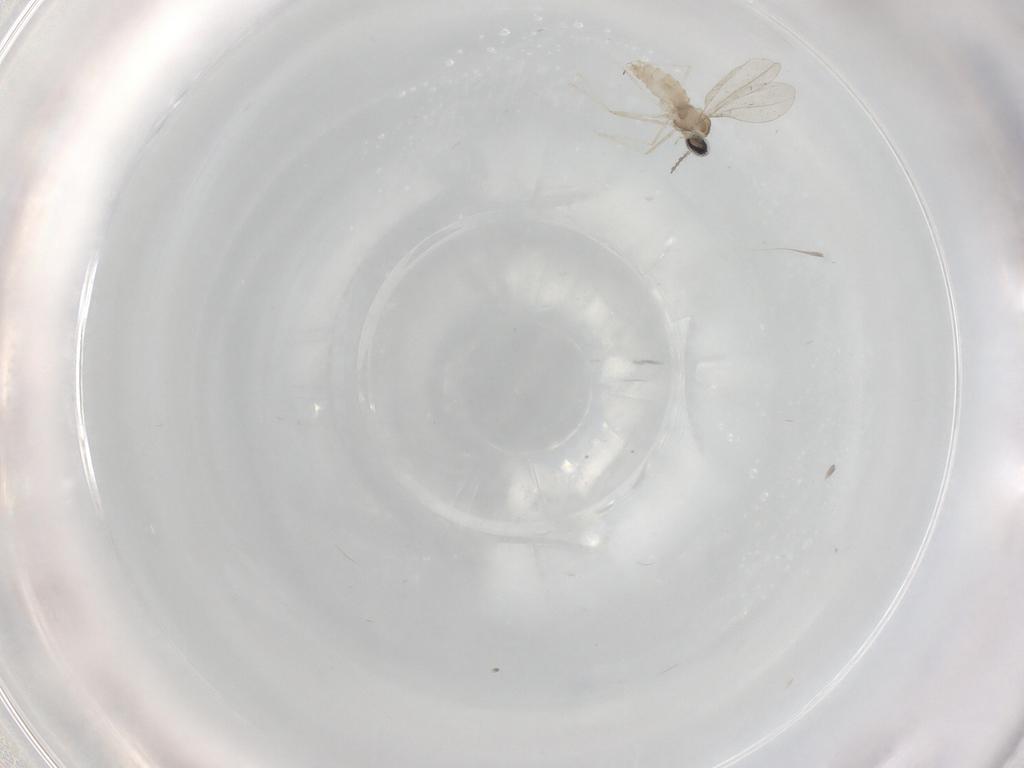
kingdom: Animalia
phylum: Arthropoda
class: Insecta
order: Diptera
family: Cecidomyiidae
